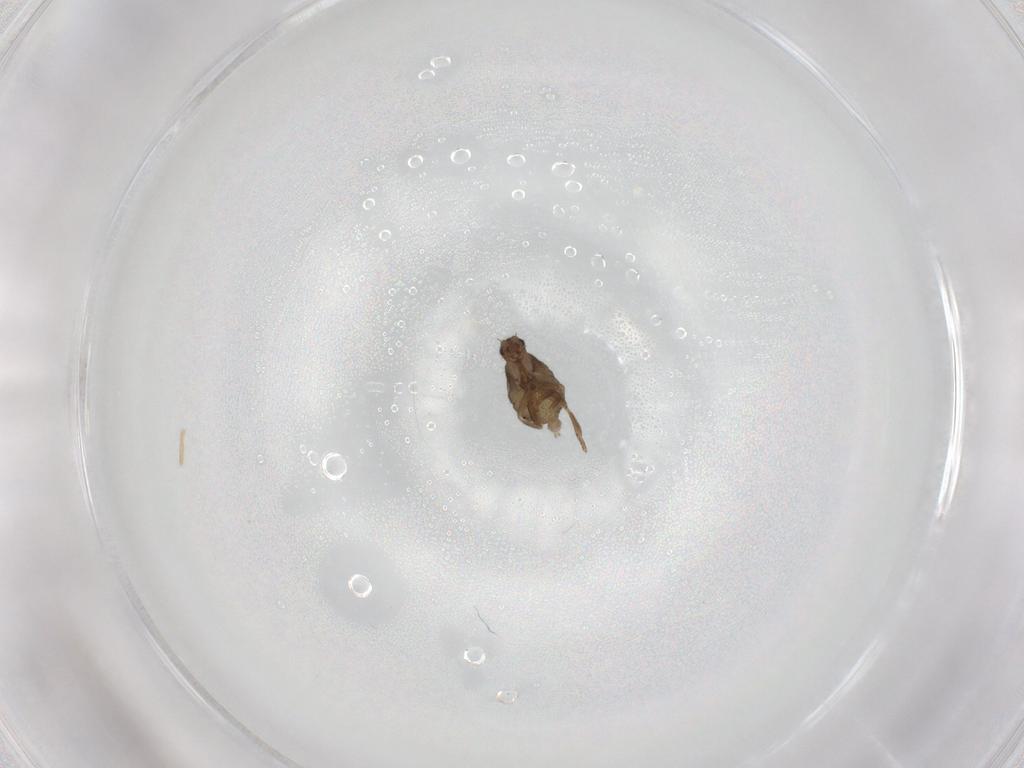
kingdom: Animalia
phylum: Arthropoda
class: Insecta
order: Diptera
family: Phoridae
